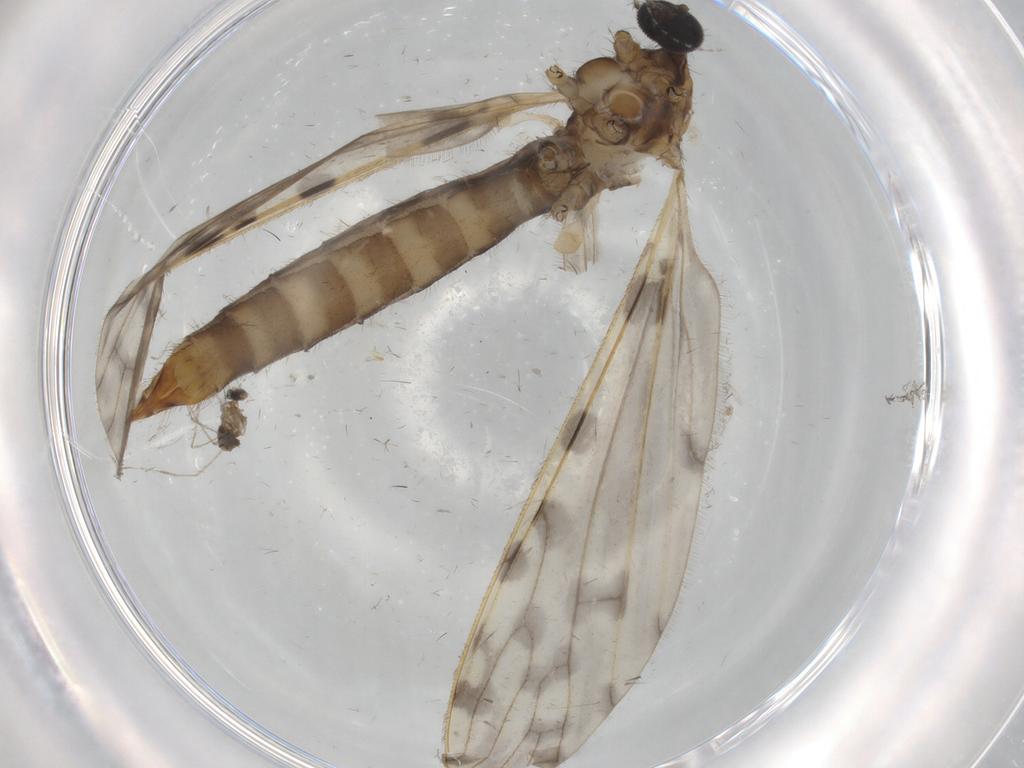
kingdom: Animalia
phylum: Arthropoda
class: Insecta
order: Diptera
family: Limoniidae
